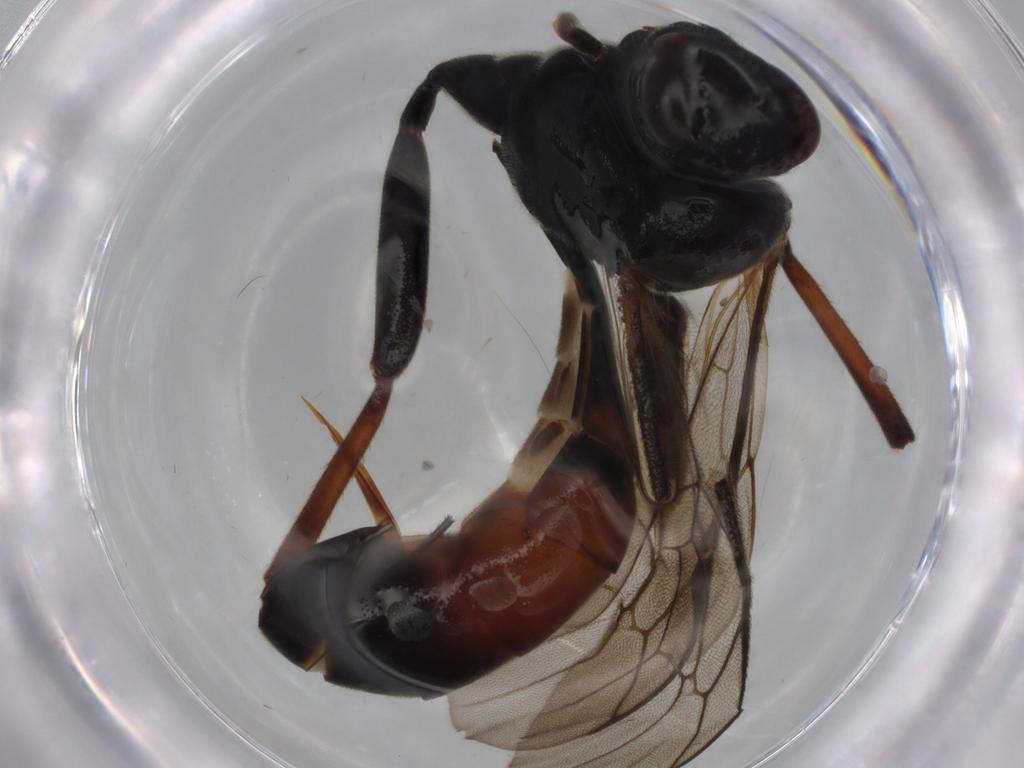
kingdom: Animalia
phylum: Arthropoda
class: Insecta
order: Hymenoptera
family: Ichneumonidae
